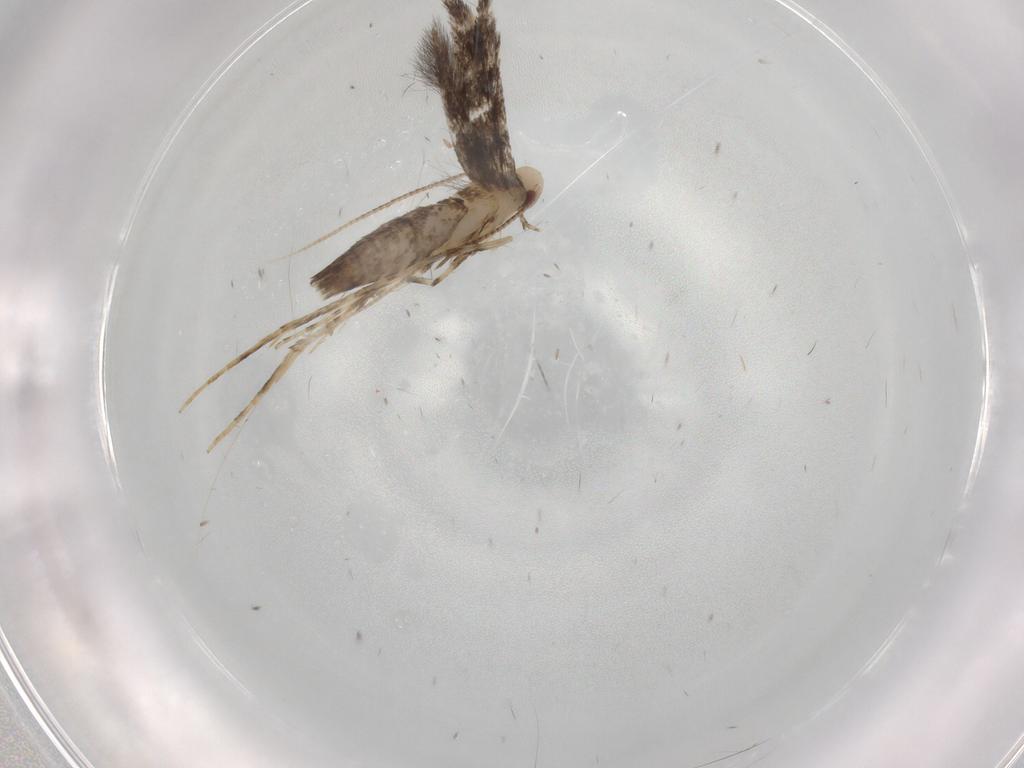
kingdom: Animalia
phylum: Arthropoda
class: Insecta
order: Lepidoptera
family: Gracillariidae
